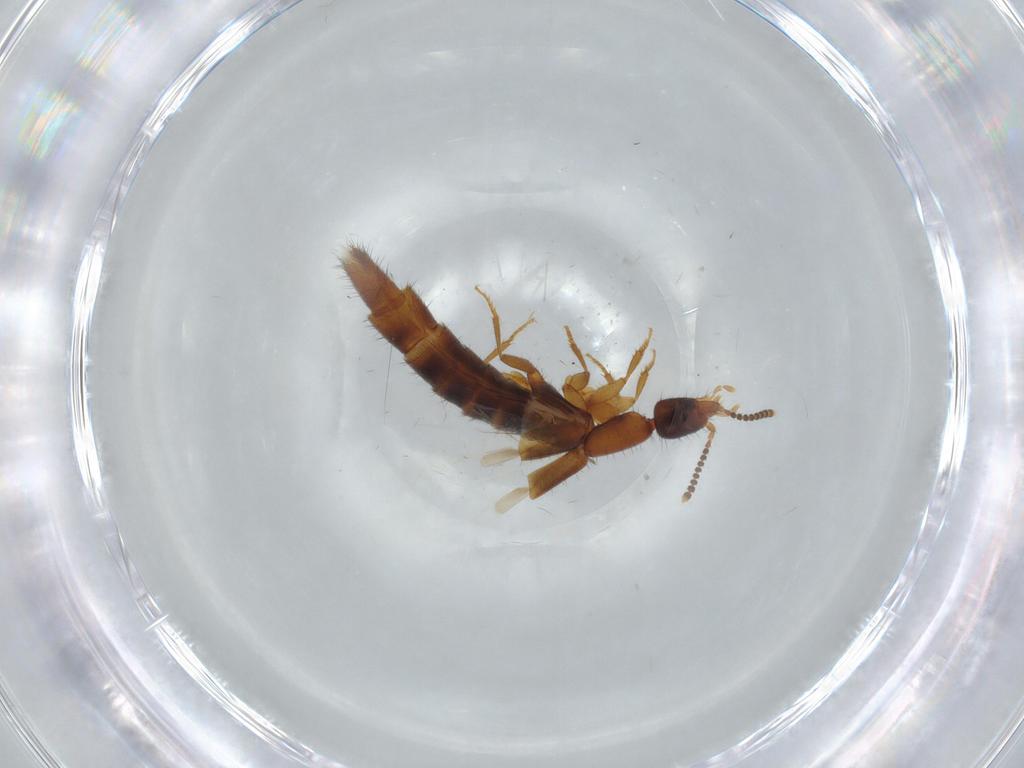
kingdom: Animalia
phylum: Arthropoda
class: Insecta
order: Coleoptera
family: Staphylinidae
